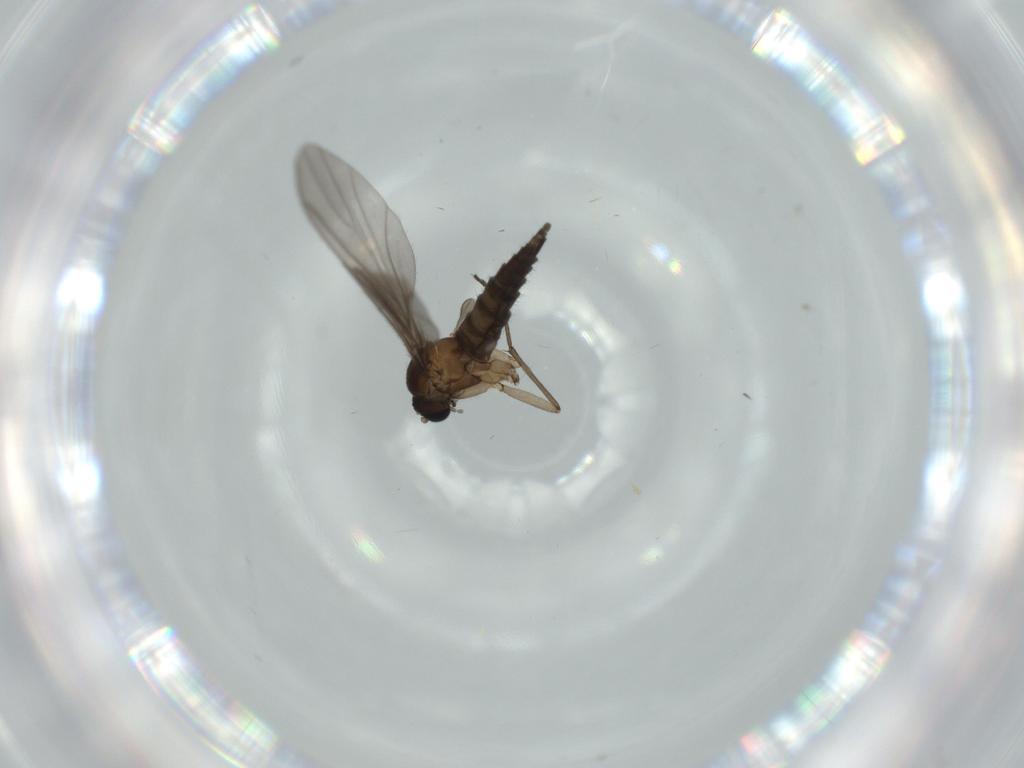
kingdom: Animalia
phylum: Arthropoda
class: Insecta
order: Diptera
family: Sciaridae
